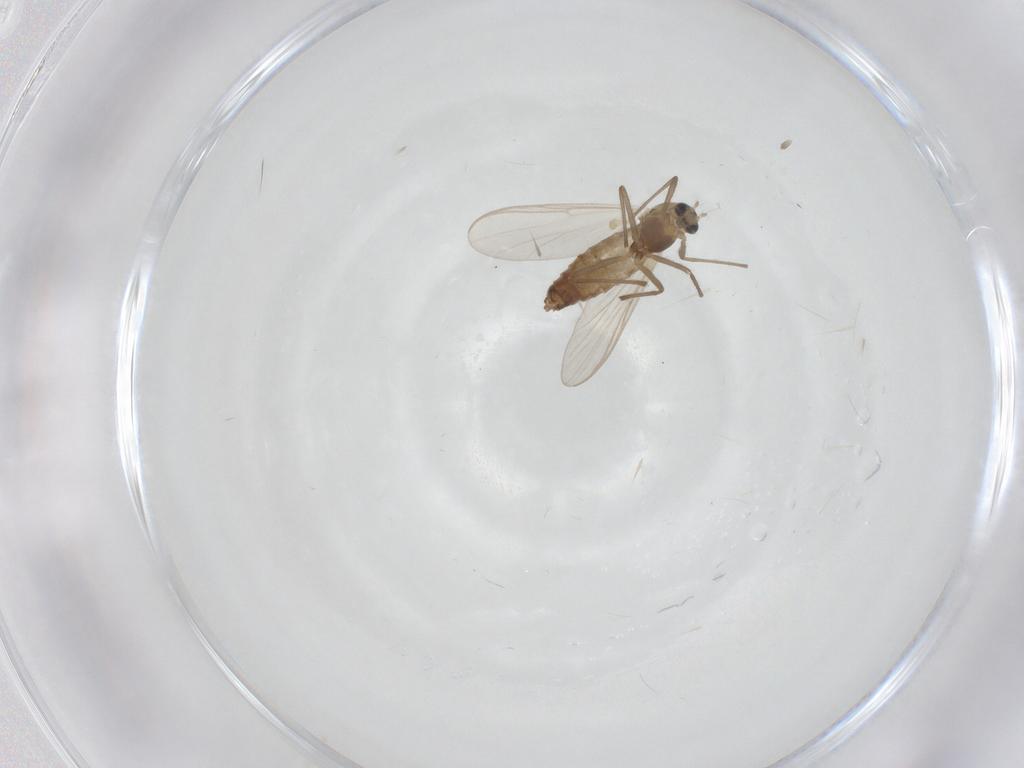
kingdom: Animalia
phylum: Arthropoda
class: Insecta
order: Diptera
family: Chironomidae
